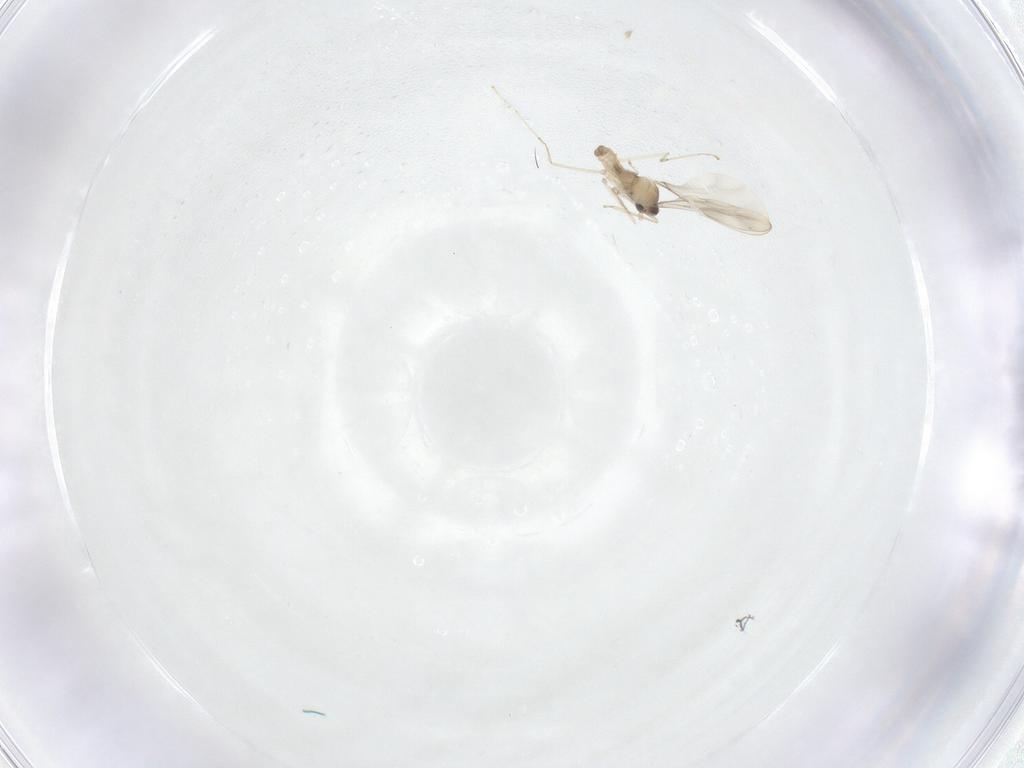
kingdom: Animalia
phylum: Arthropoda
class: Insecta
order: Diptera
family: Cecidomyiidae
